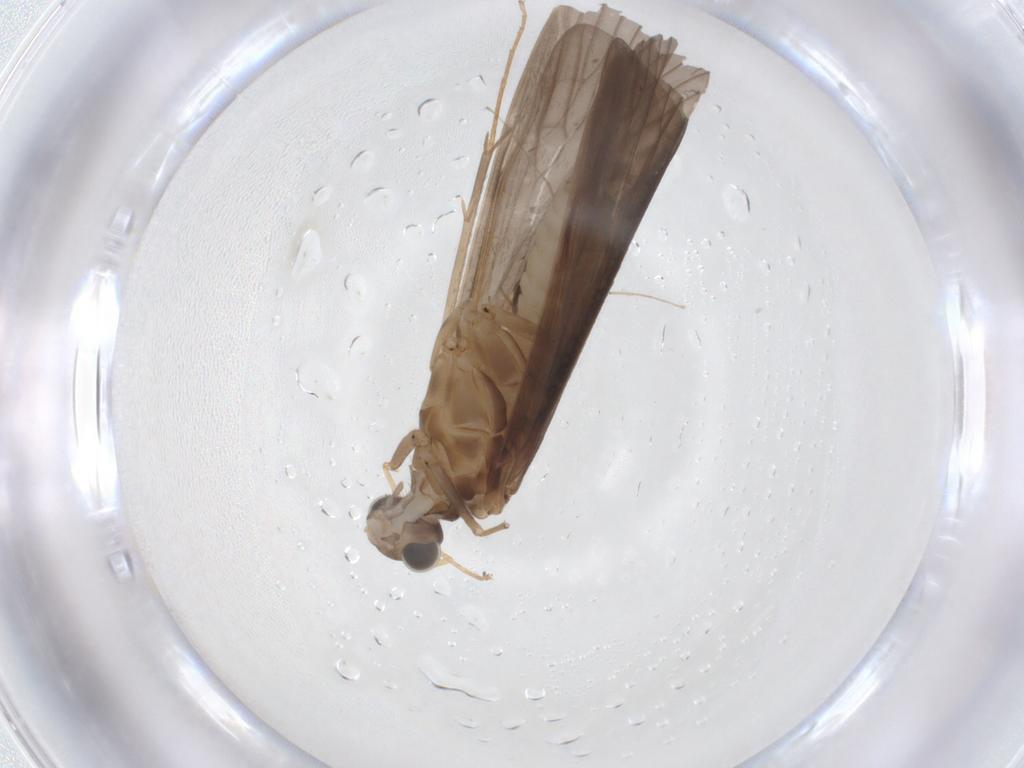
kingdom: Animalia
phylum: Arthropoda
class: Insecta
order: Trichoptera
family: Hydropsychidae
